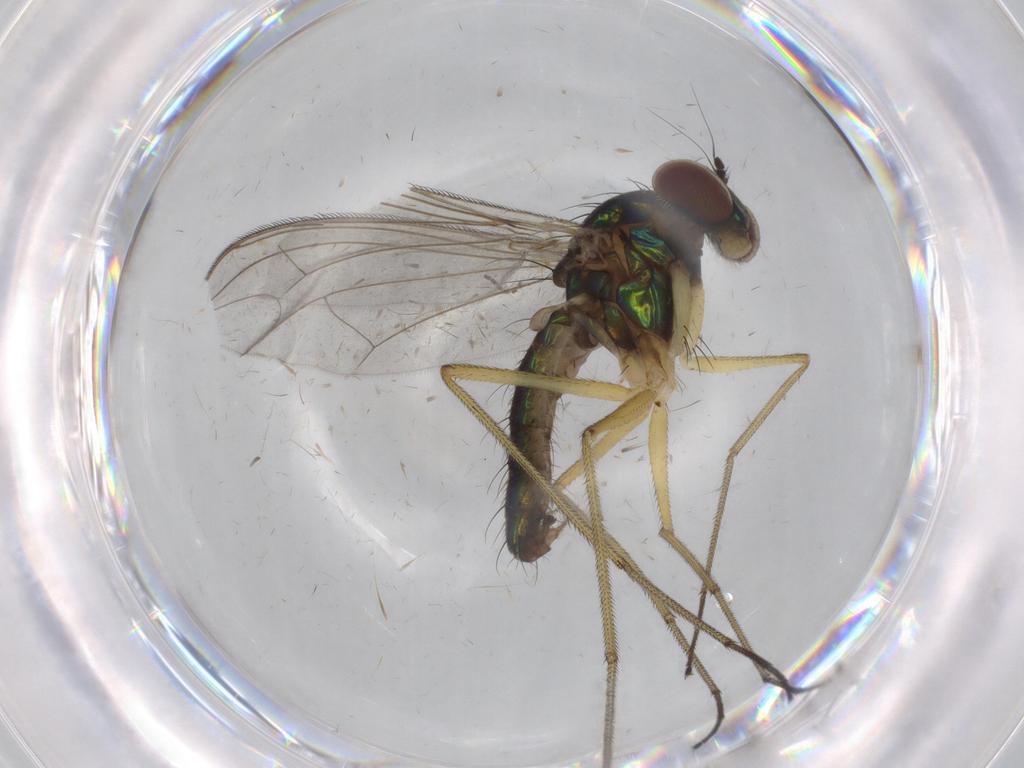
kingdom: Animalia
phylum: Arthropoda
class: Insecta
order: Diptera
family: Dolichopodidae
